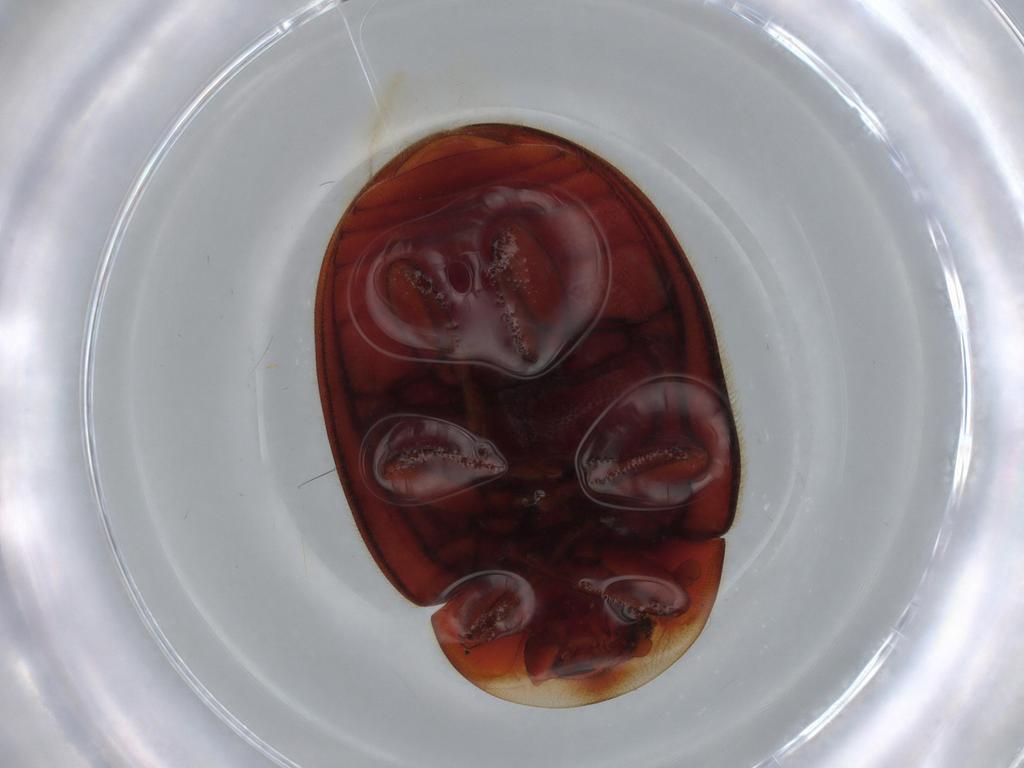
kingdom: Animalia
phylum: Arthropoda
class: Insecta
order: Coleoptera
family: Coccinellidae
